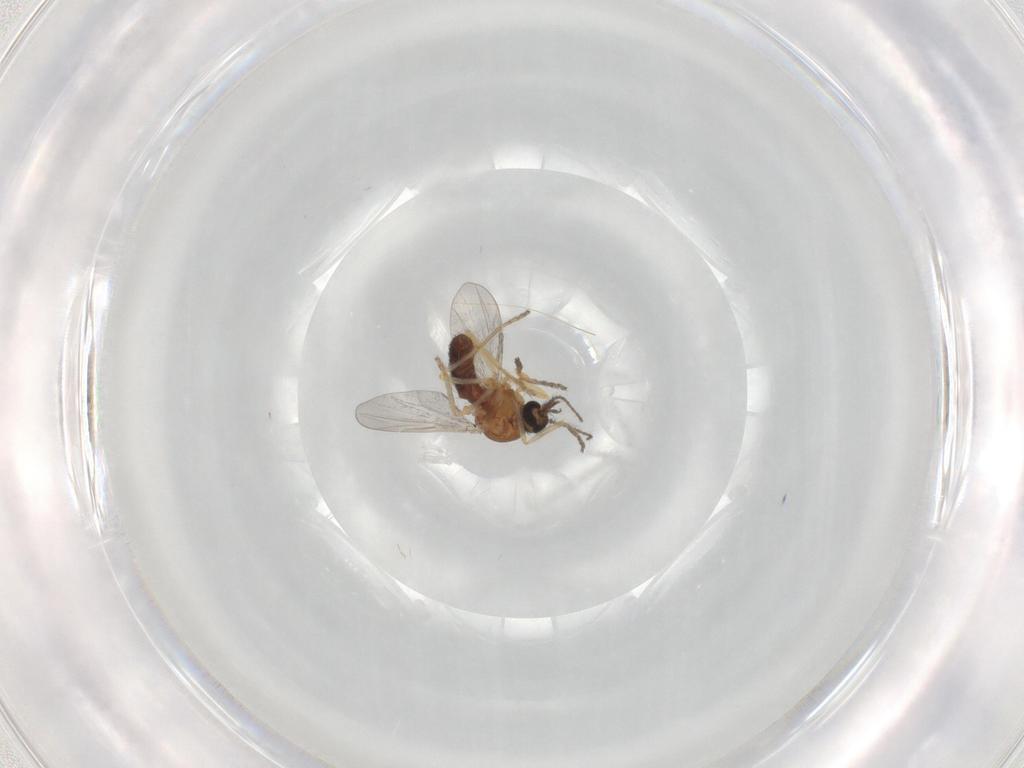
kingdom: Animalia
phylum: Arthropoda
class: Insecta
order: Diptera
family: Ceratopogonidae
